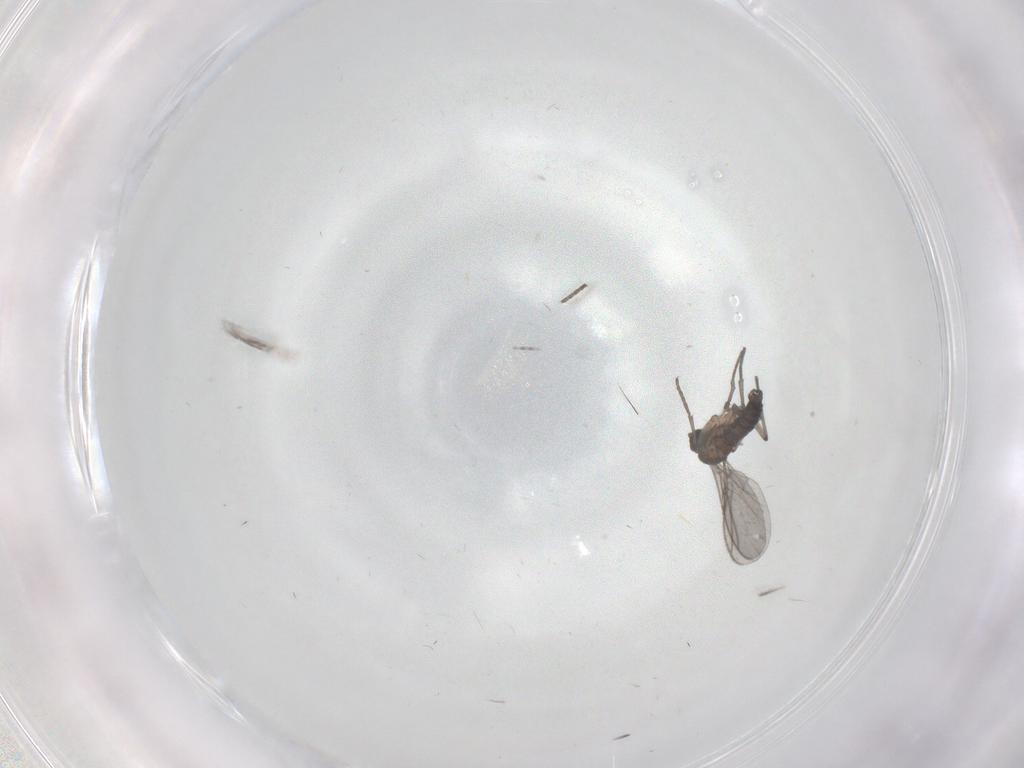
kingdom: Animalia
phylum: Arthropoda
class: Insecta
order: Diptera
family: Sciaridae
